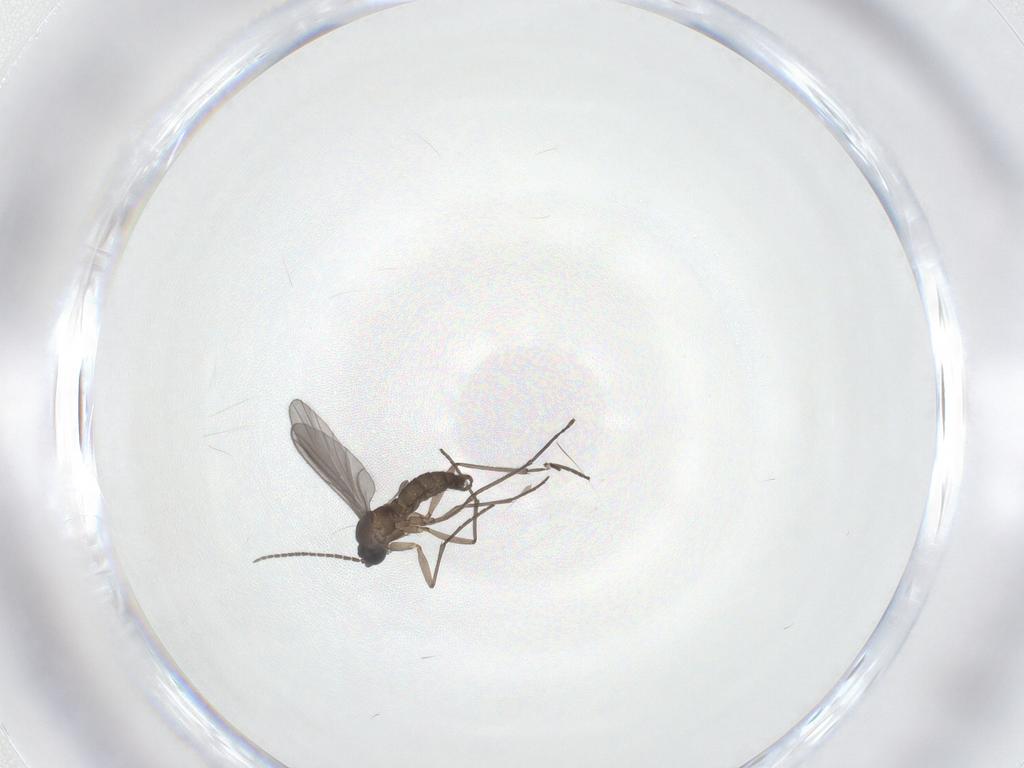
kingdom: Animalia
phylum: Arthropoda
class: Insecta
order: Diptera
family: Sciaridae
